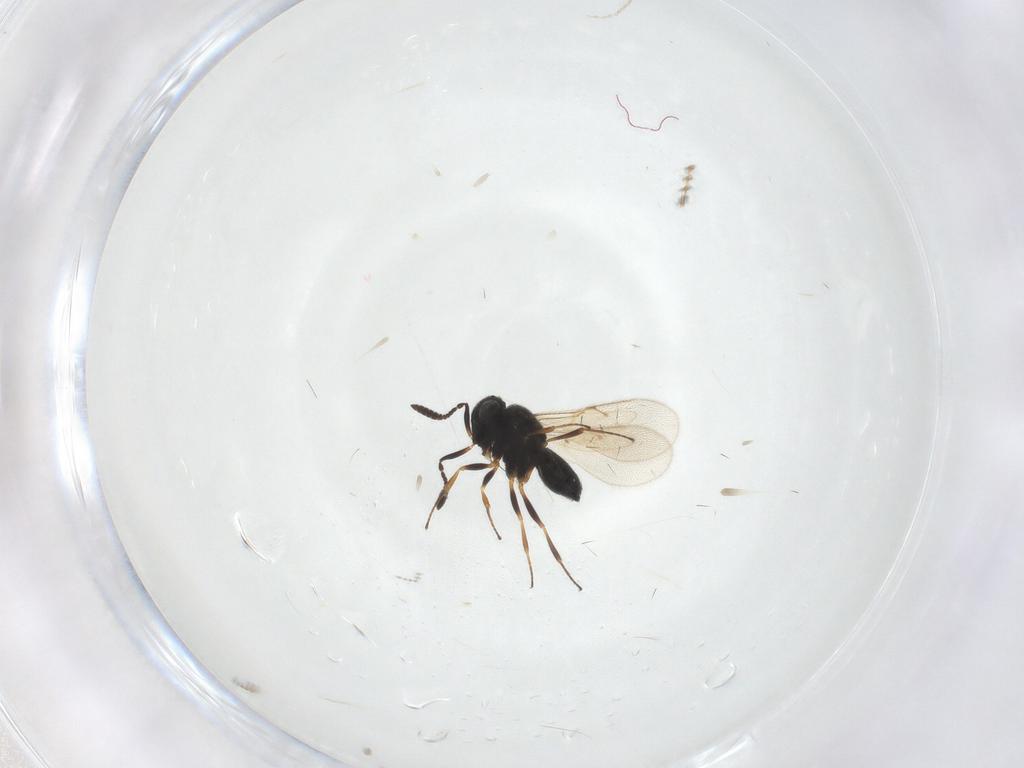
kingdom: Animalia
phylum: Arthropoda
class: Insecta
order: Hymenoptera
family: Scelionidae
